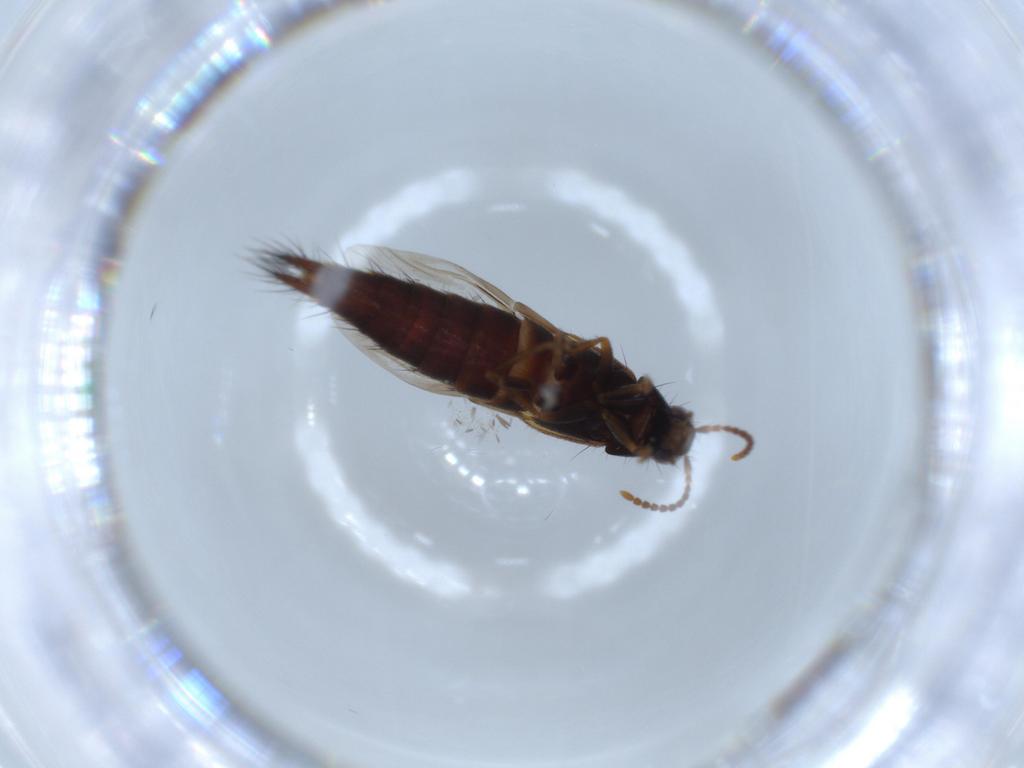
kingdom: Animalia
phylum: Arthropoda
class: Insecta
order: Coleoptera
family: Staphylinidae
